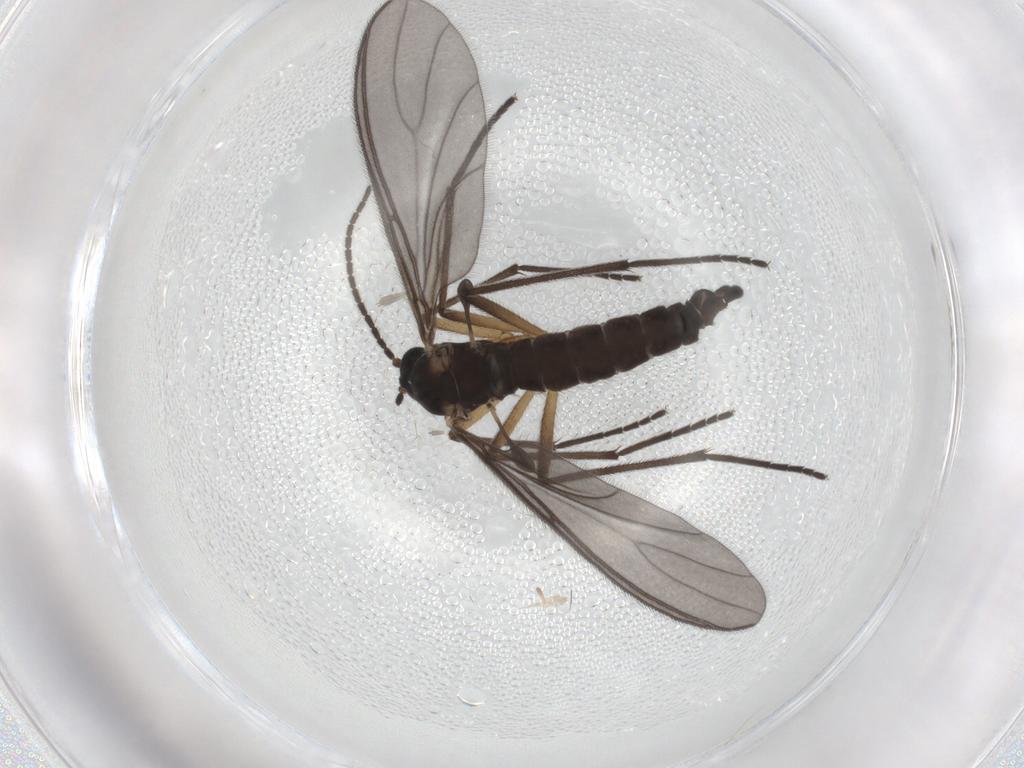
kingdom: Animalia
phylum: Arthropoda
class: Insecta
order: Diptera
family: Sciaridae
